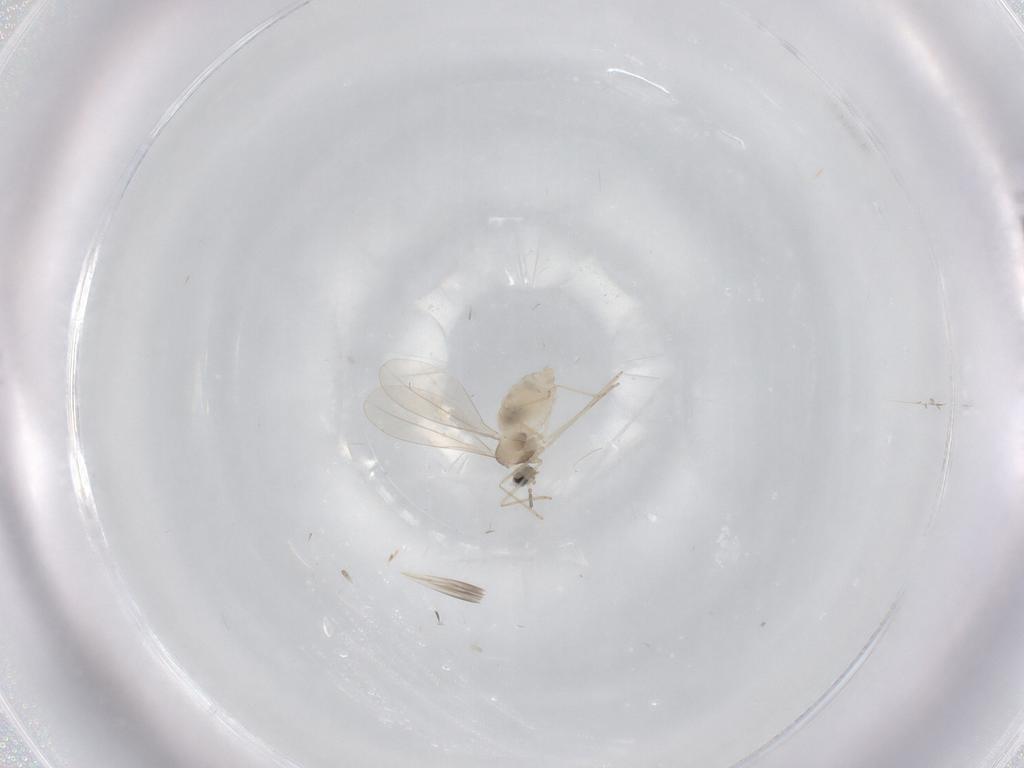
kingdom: Animalia
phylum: Arthropoda
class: Insecta
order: Diptera
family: Cecidomyiidae
